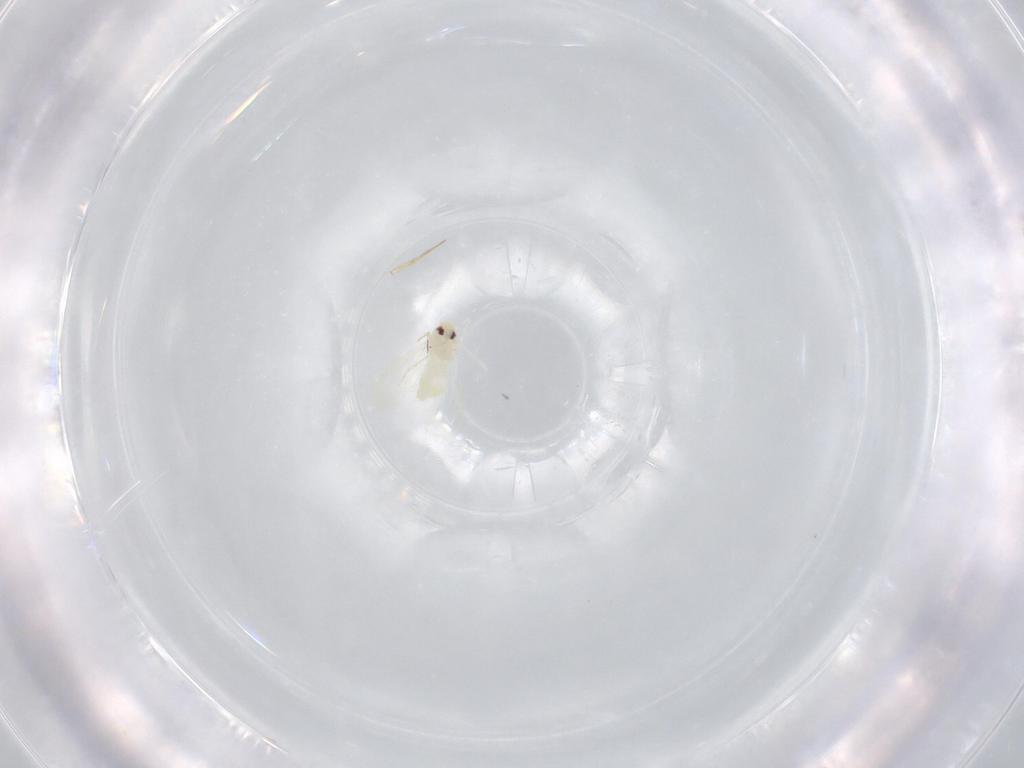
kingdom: Animalia
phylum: Arthropoda
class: Insecta
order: Hemiptera
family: Aleyrodidae
